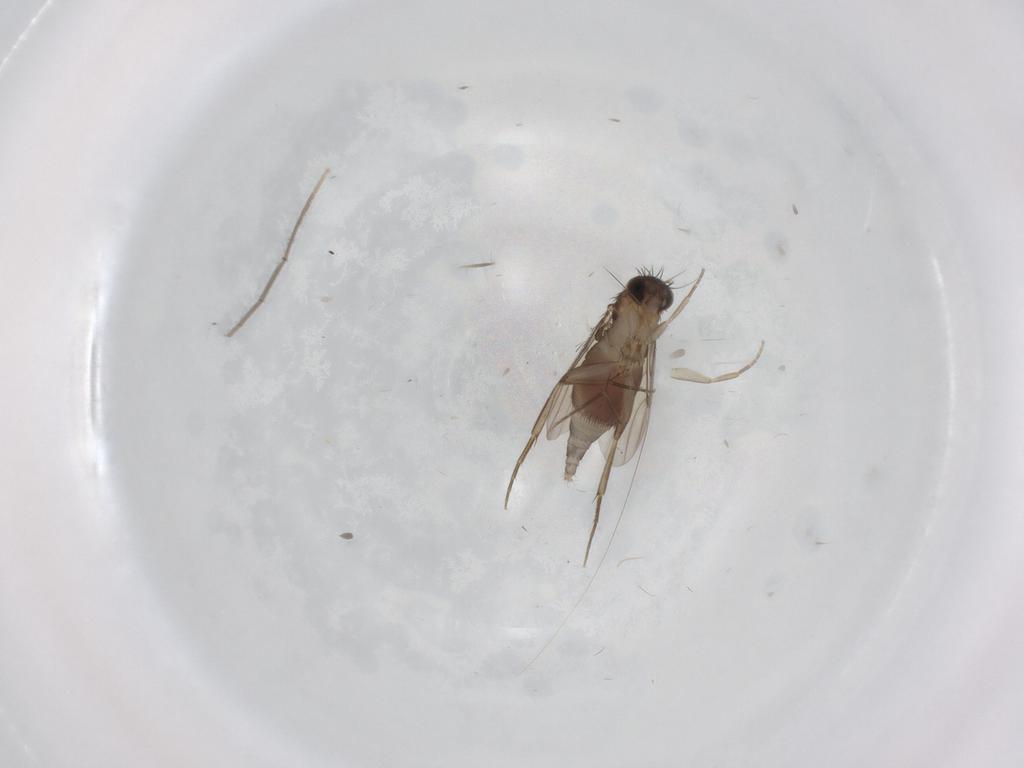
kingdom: Animalia
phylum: Arthropoda
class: Insecta
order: Diptera
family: Phoridae
